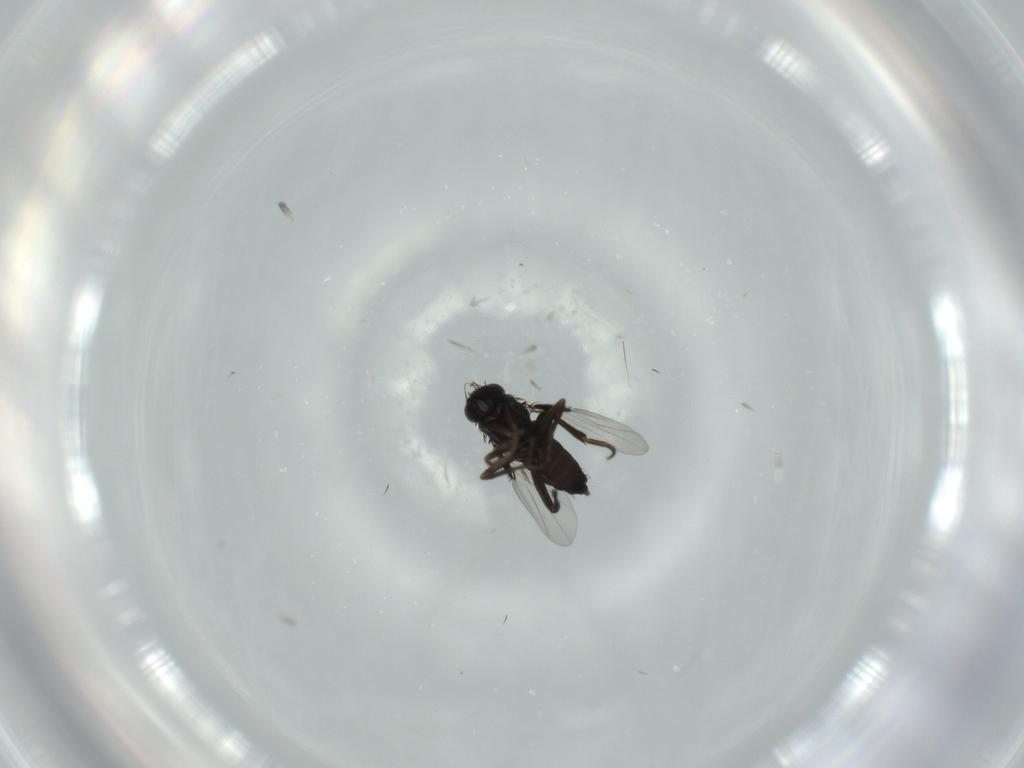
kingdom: Animalia
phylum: Arthropoda
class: Insecta
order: Diptera
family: Phoridae
